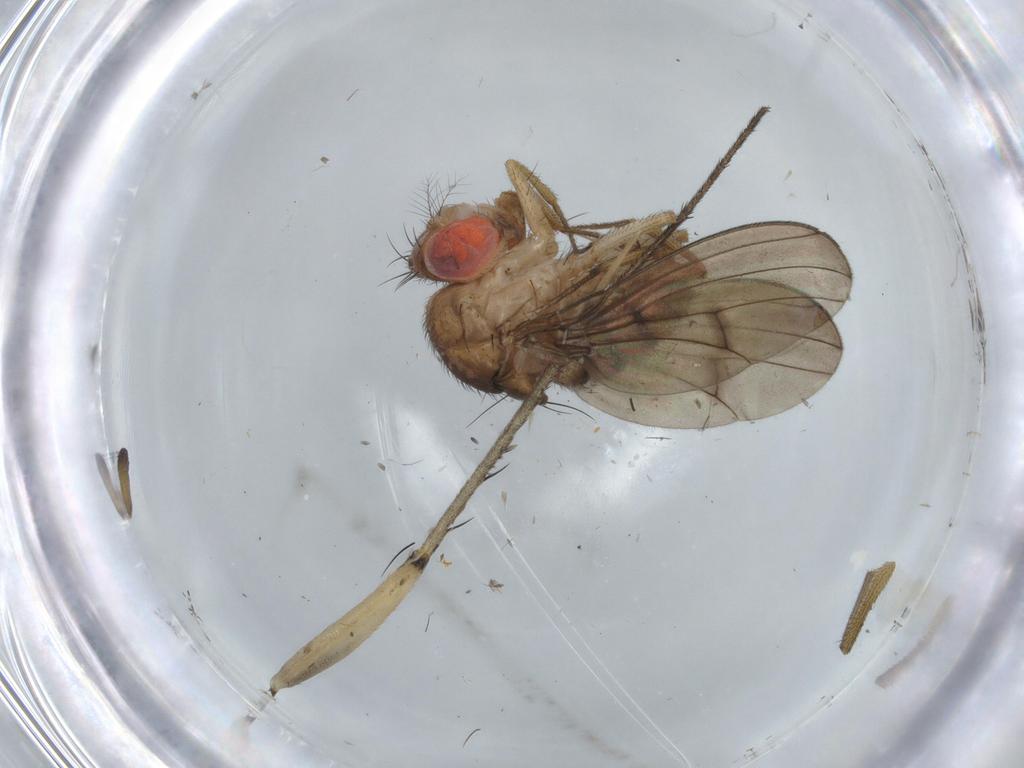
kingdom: Animalia
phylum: Arthropoda
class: Insecta
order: Diptera
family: Drosophilidae
